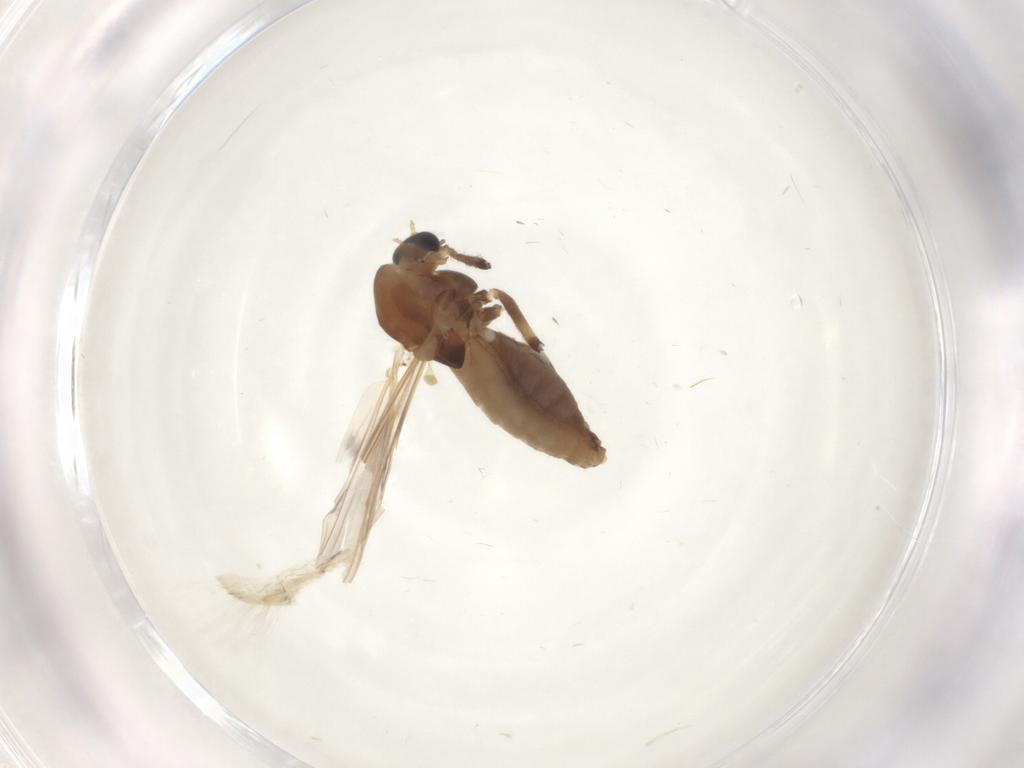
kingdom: Animalia
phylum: Arthropoda
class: Insecta
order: Diptera
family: Chironomidae
